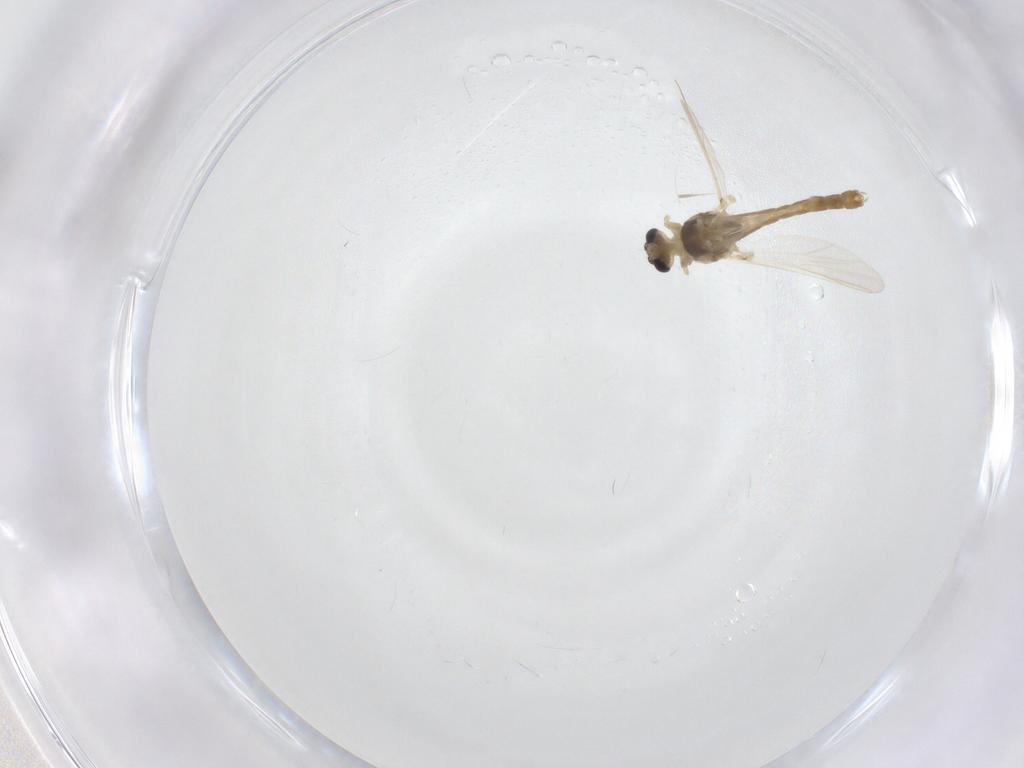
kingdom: Animalia
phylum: Arthropoda
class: Insecta
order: Diptera
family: Chironomidae
